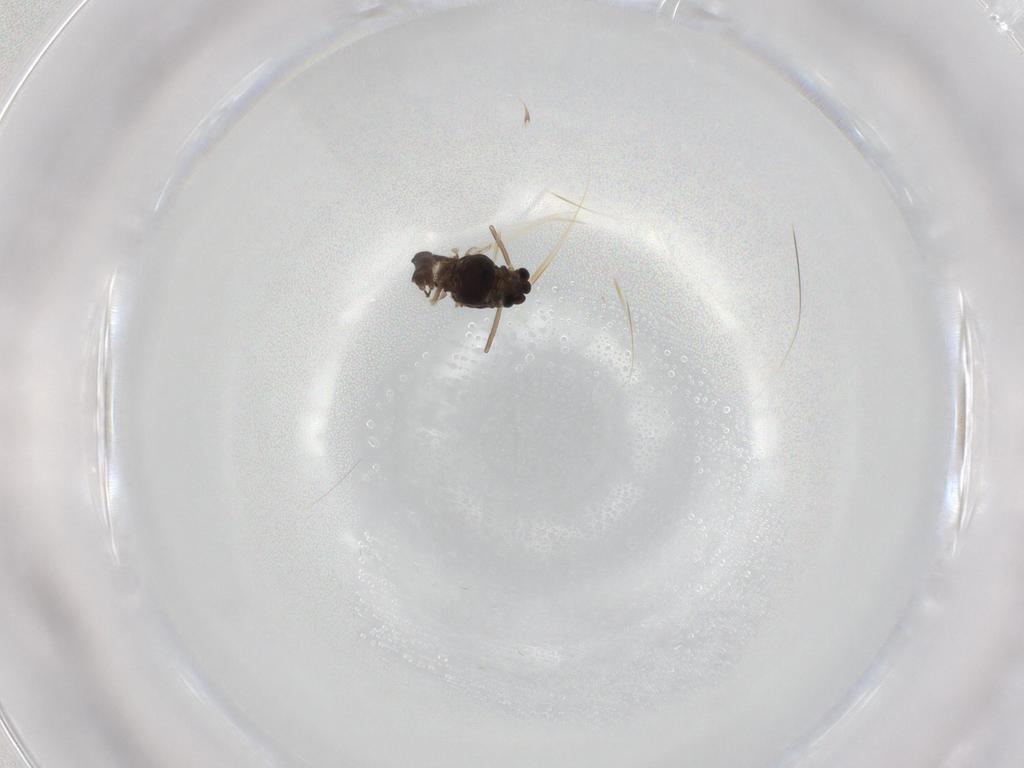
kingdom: Animalia
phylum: Arthropoda
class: Insecta
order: Diptera
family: Chironomidae
